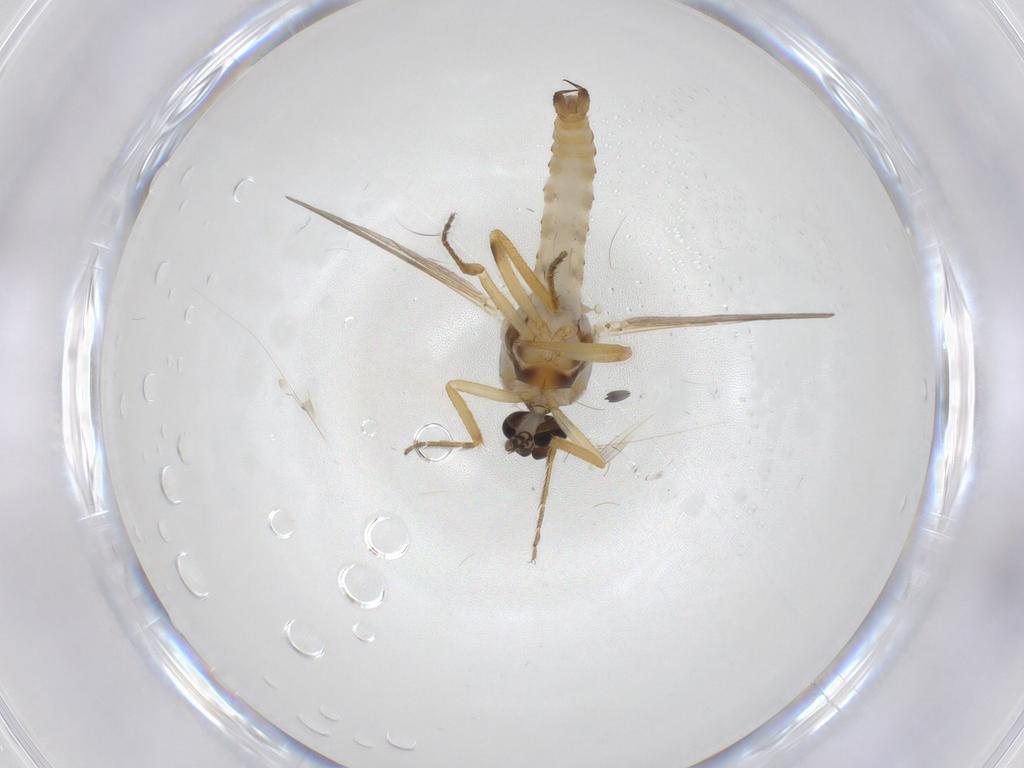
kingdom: Animalia
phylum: Arthropoda
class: Insecta
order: Diptera
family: Ceratopogonidae
